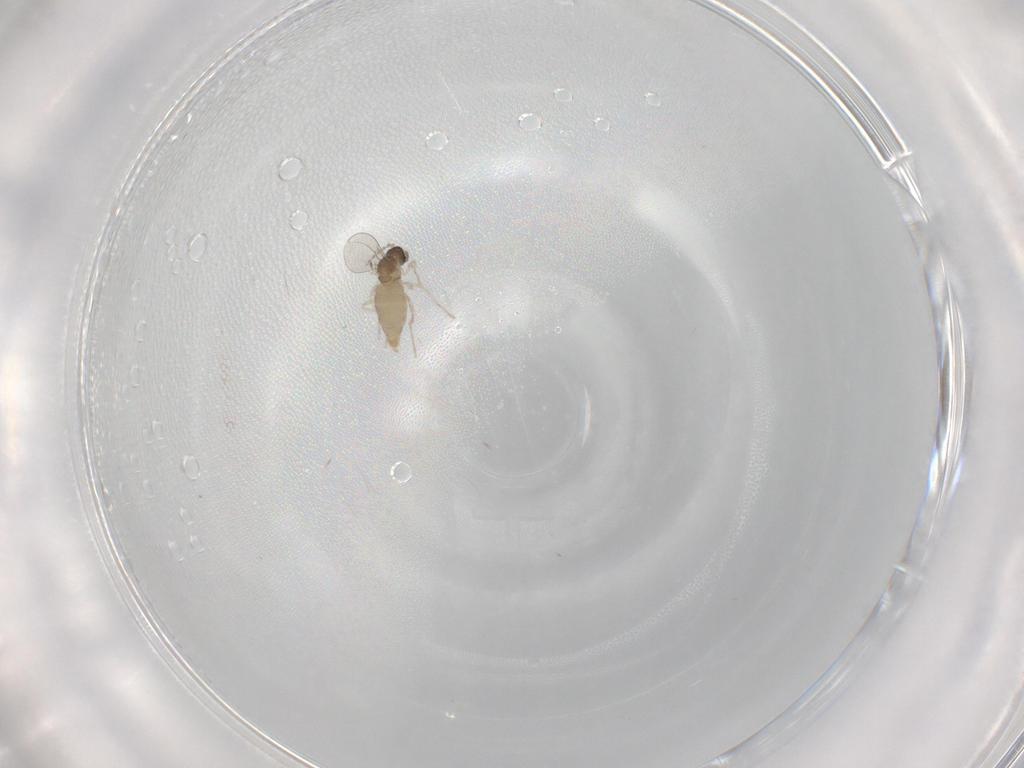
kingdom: Animalia
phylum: Arthropoda
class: Insecta
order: Diptera
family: Cecidomyiidae
